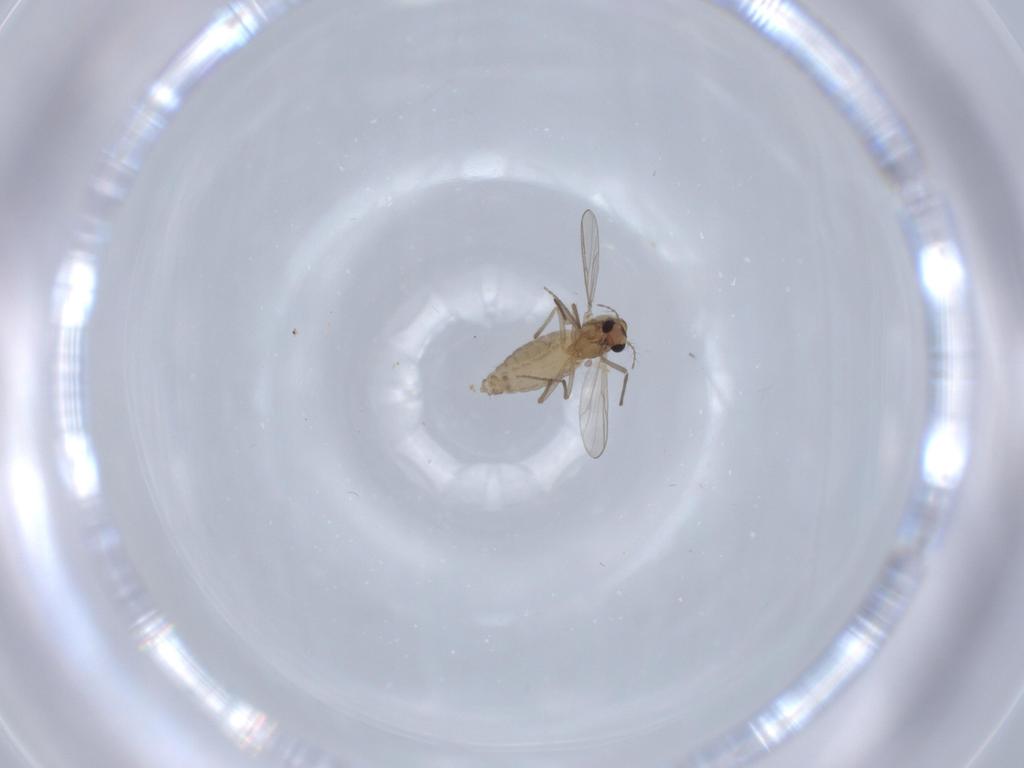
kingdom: Animalia
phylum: Arthropoda
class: Insecta
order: Diptera
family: Chironomidae
